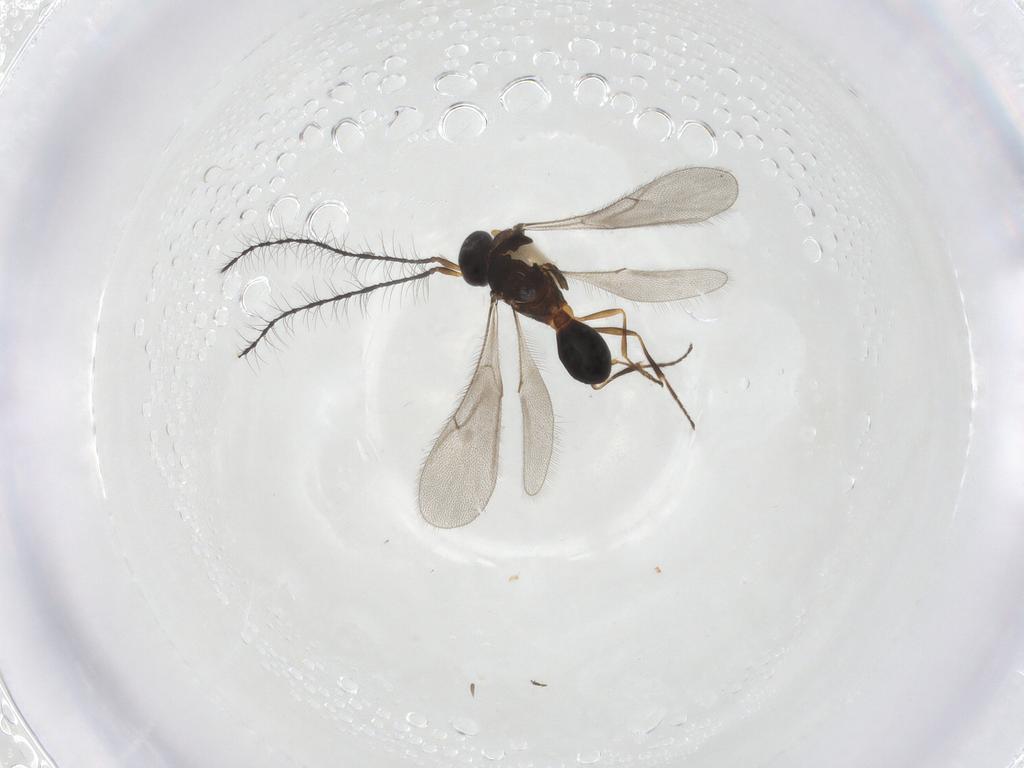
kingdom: Animalia
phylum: Arthropoda
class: Insecta
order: Hymenoptera
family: Scelionidae
